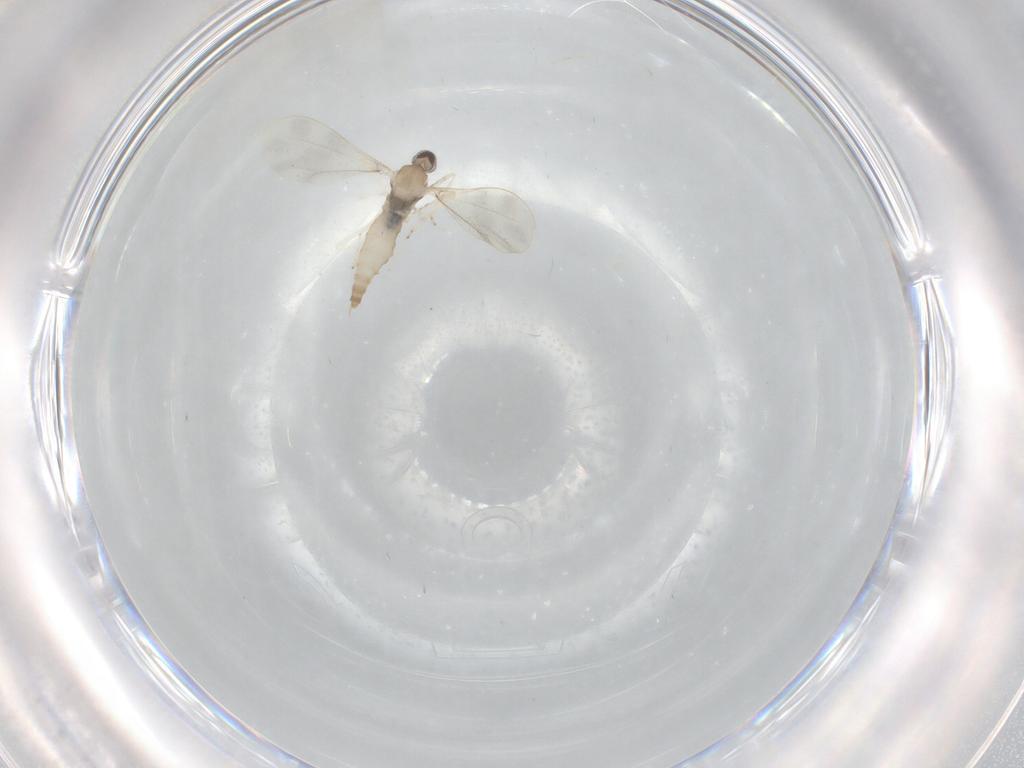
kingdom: Animalia
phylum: Arthropoda
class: Insecta
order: Diptera
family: Cecidomyiidae
